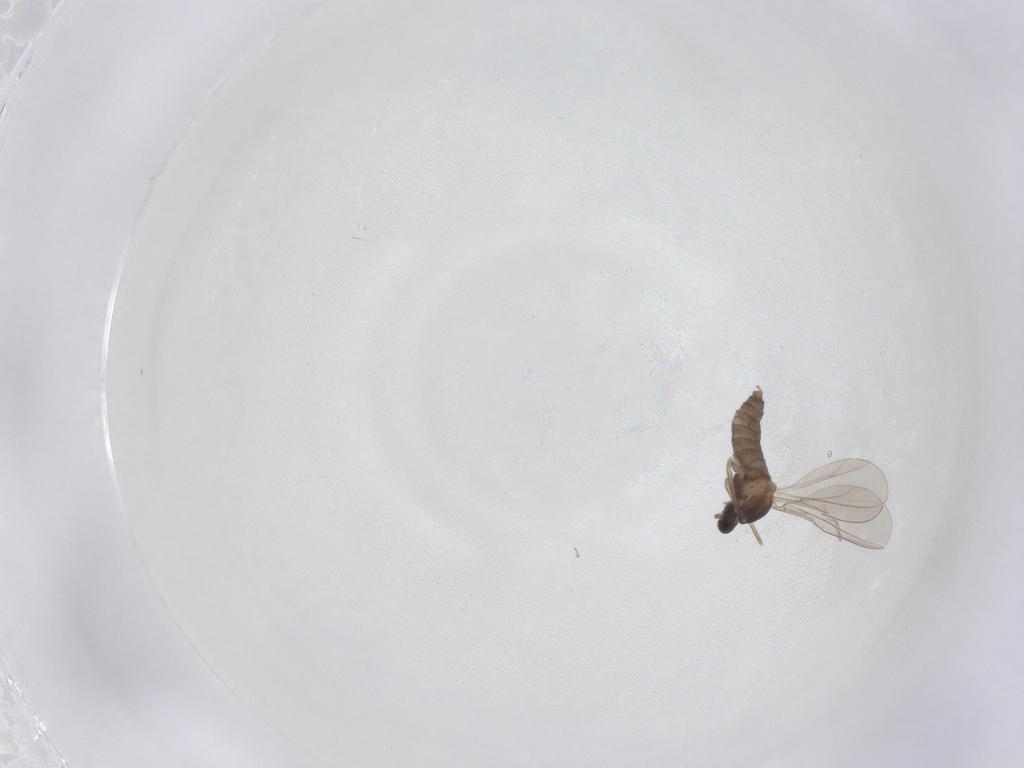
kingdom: Animalia
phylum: Arthropoda
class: Insecta
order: Diptera
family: Cecidomyiidae
